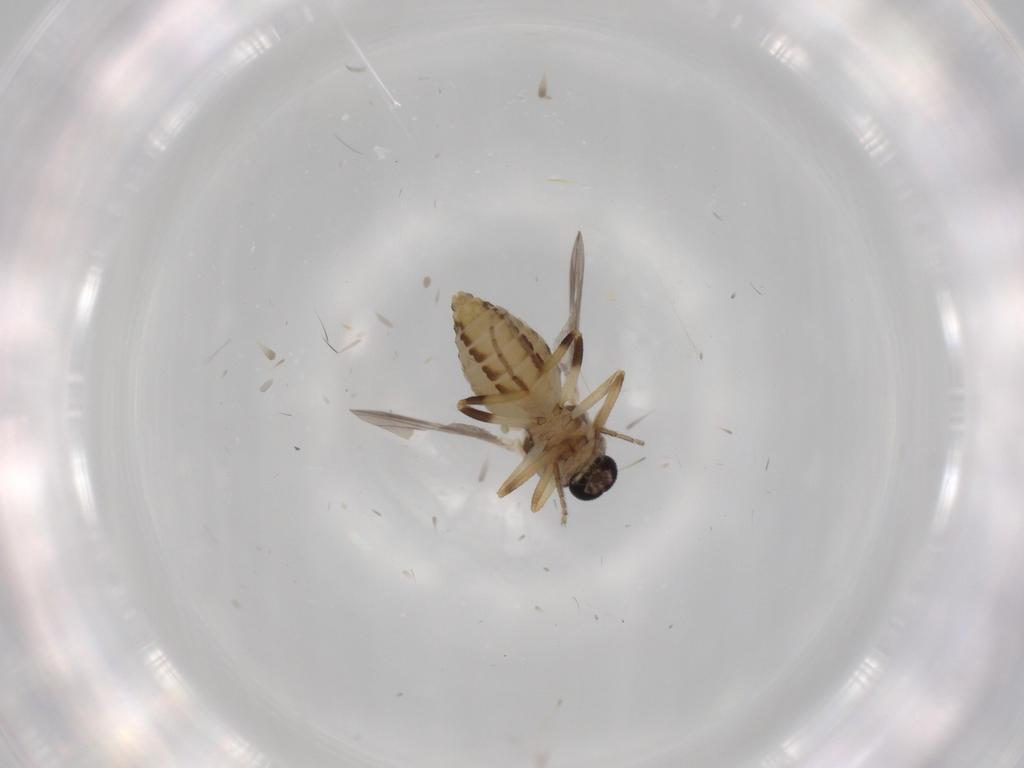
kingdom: Animalia
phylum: Arthropoda
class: Insecta
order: Diptera
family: Ceratopogonidae
